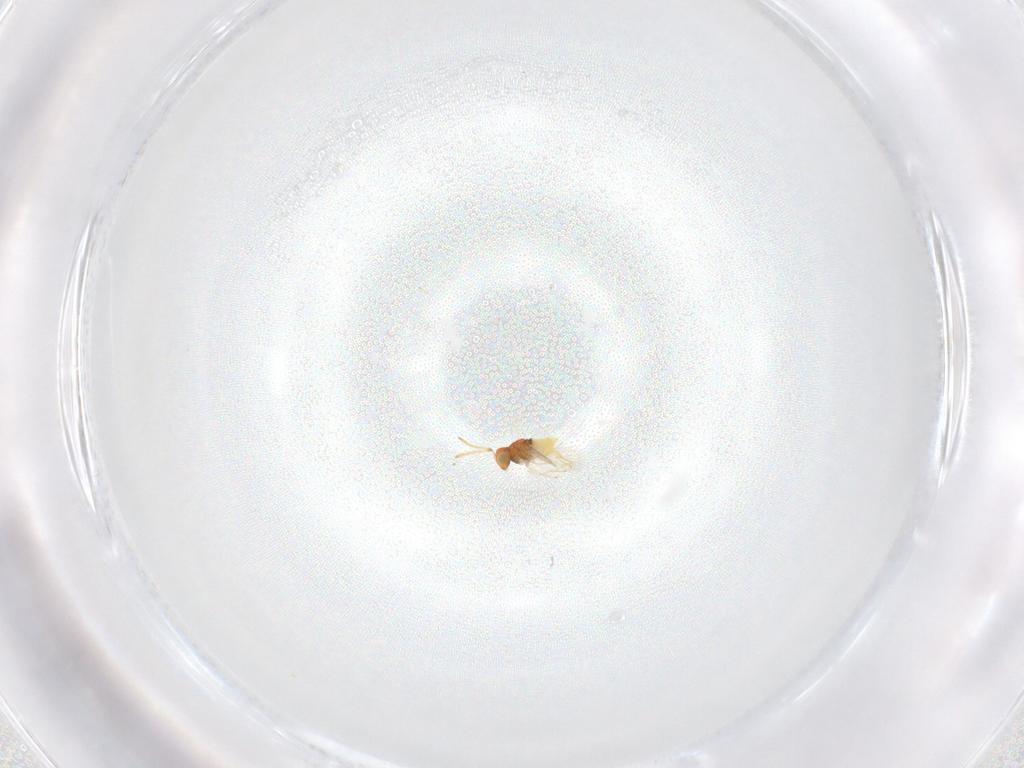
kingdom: Animalia
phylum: Arthropoda
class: Insecta
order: Hymenoptera
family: Aphelinidae
